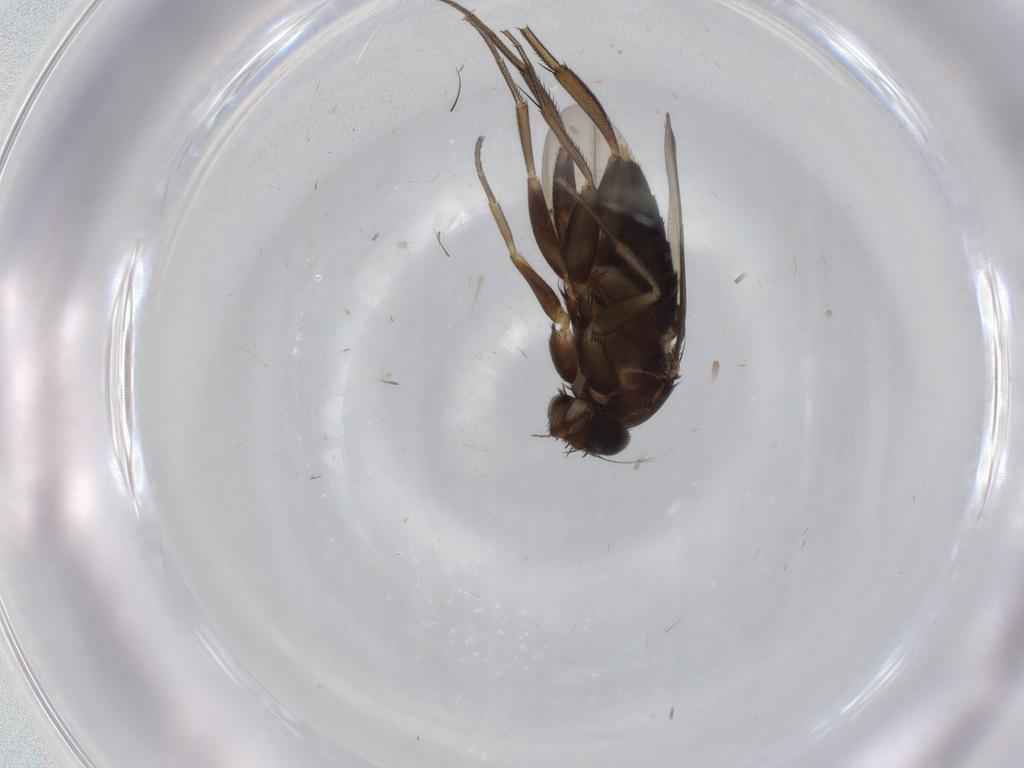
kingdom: Animalia
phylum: Arthropoda
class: Insecta
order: Diptera
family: Phoridae
